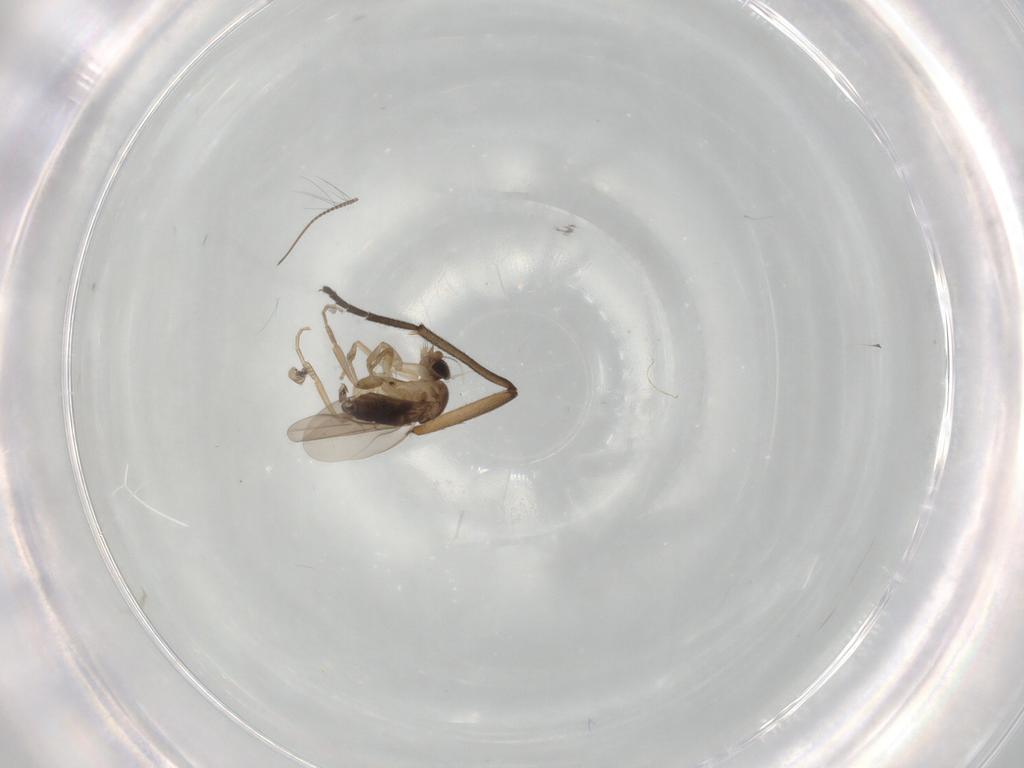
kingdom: Animalia
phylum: Arthropoda
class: Insecta
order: Diptera
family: Phoridae
